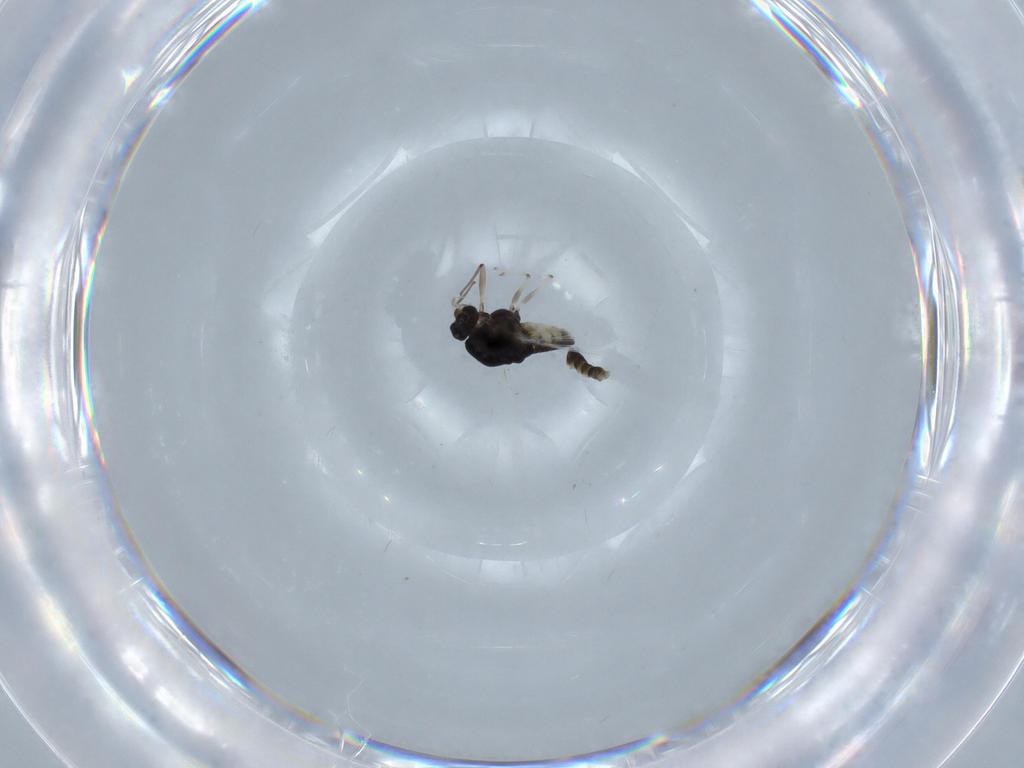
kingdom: Animalia
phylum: Arthropoda
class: Insecta
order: Diptera
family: Chironomidae
